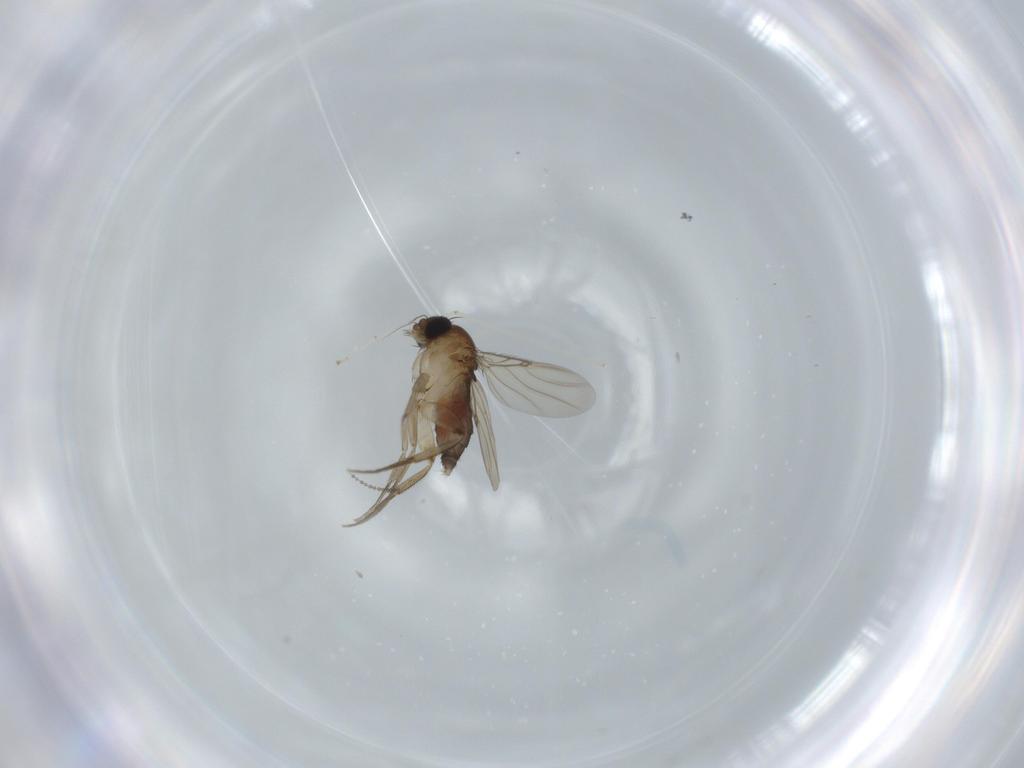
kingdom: Animalia
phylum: Arthropoda
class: Insecta
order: Diptera
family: Phoridae
